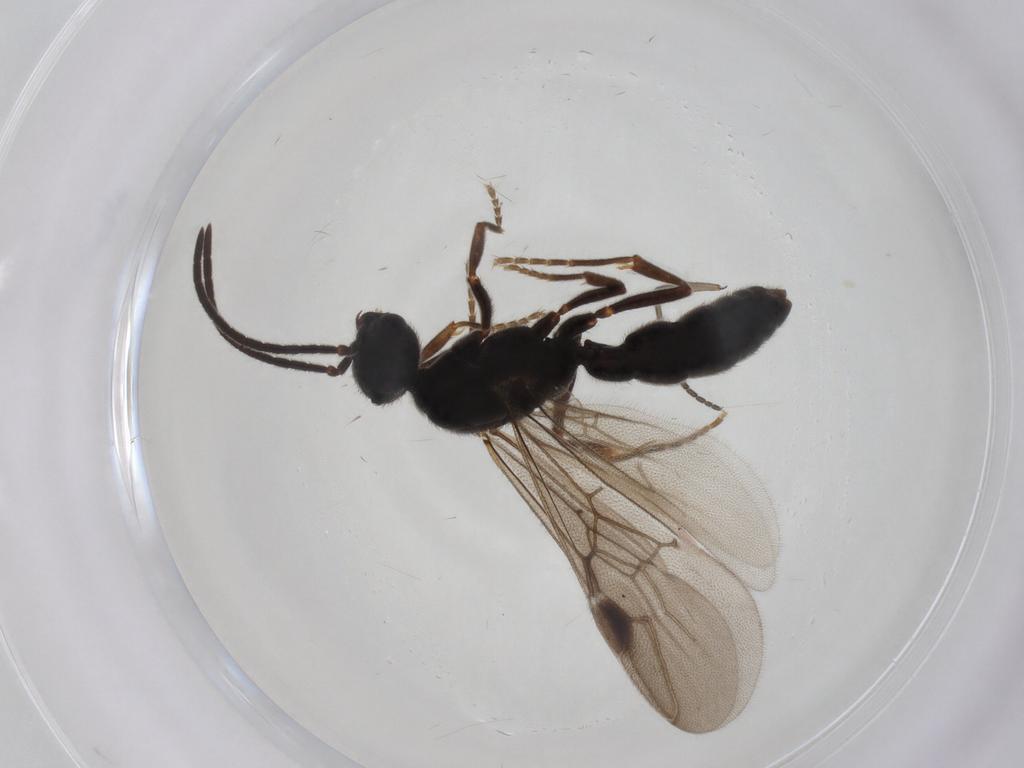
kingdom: Animalia
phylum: Arthropoda
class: Insecta
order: Hymenoptera
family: Formicidae
